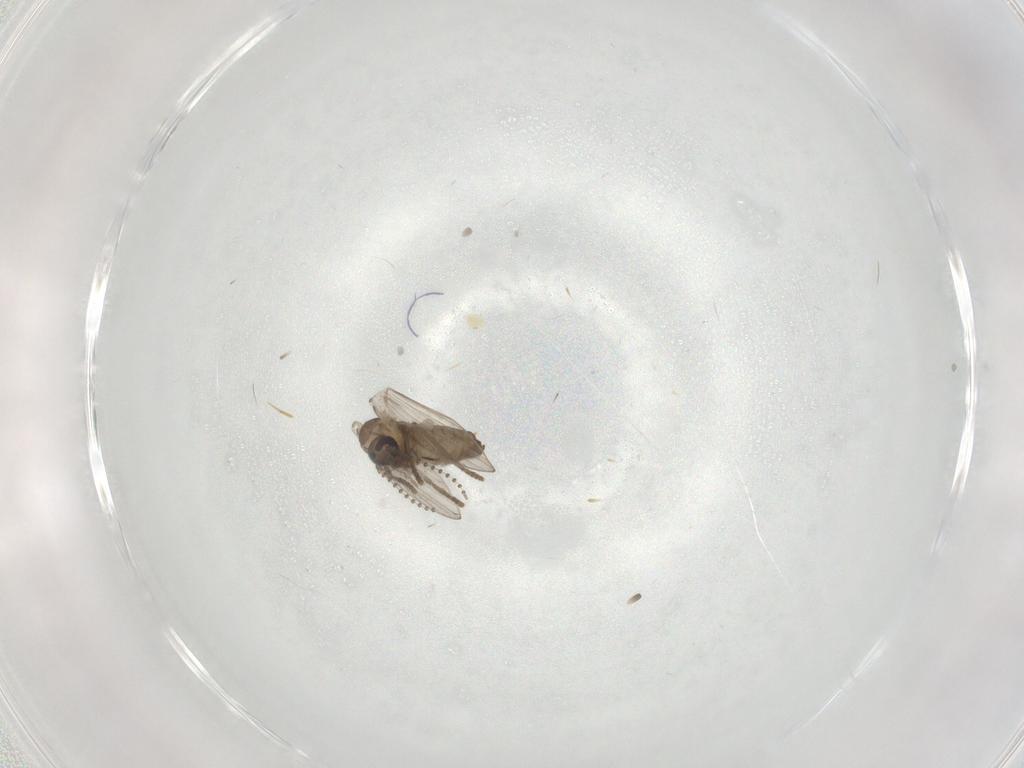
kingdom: Animalia
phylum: Arthropoda
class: Insecta
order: Diptera
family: Psychodidae
